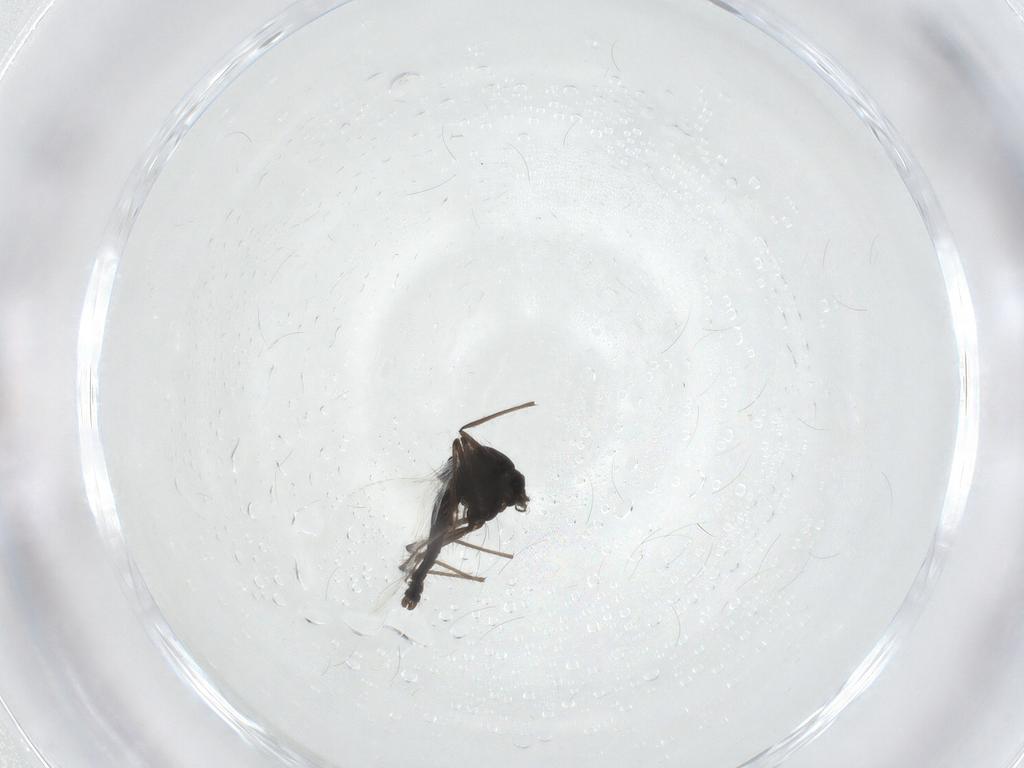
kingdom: Animalia
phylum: Arthropoda
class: Insecta
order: Diptera
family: Chironomidae
